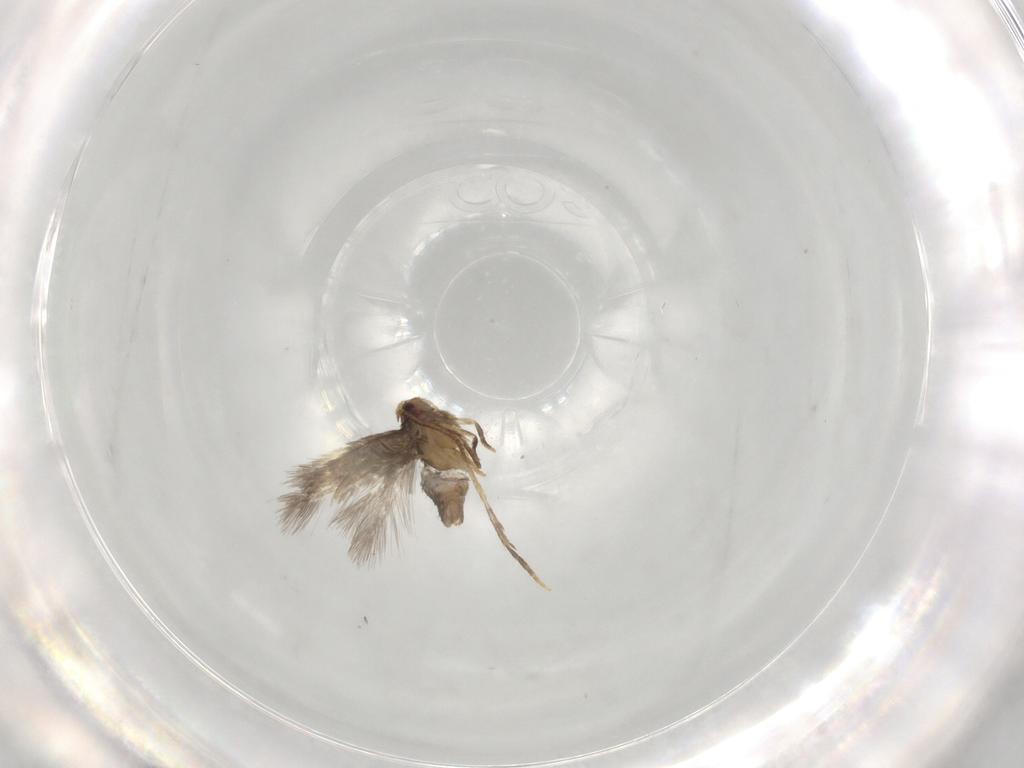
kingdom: Animalia
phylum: Arthropoda
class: Insecta
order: Lepidoptera
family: Nepticulidae
